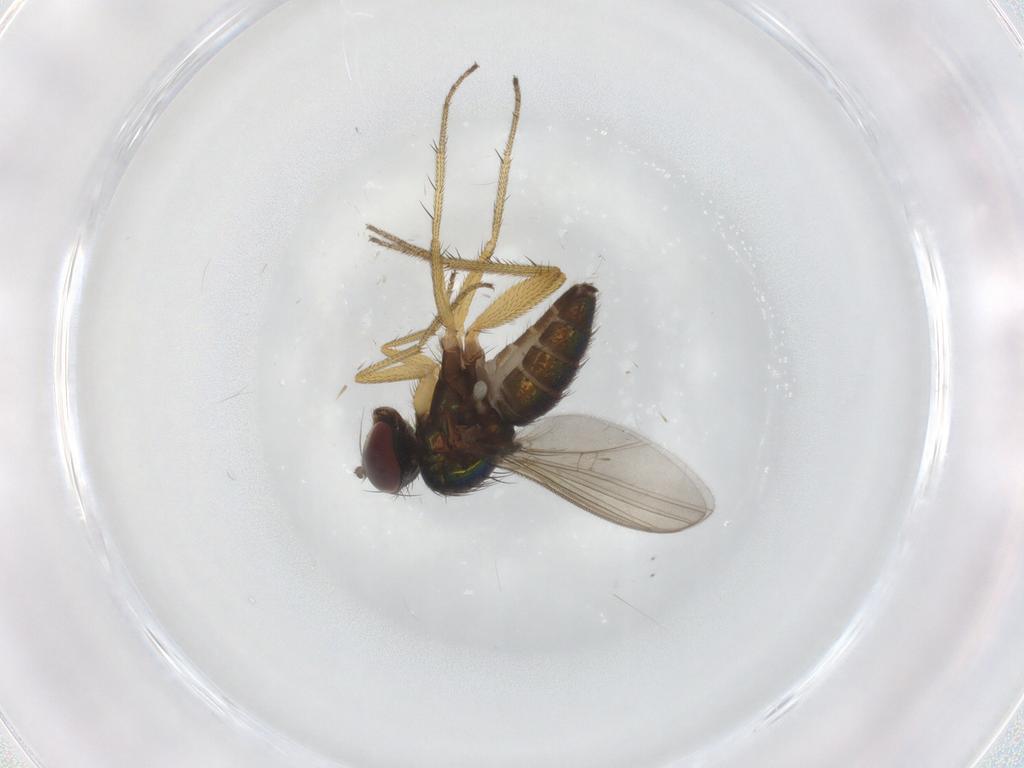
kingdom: Animalia
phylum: Arthropoda
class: Insecta
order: Diptera
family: Dolichopodidae
